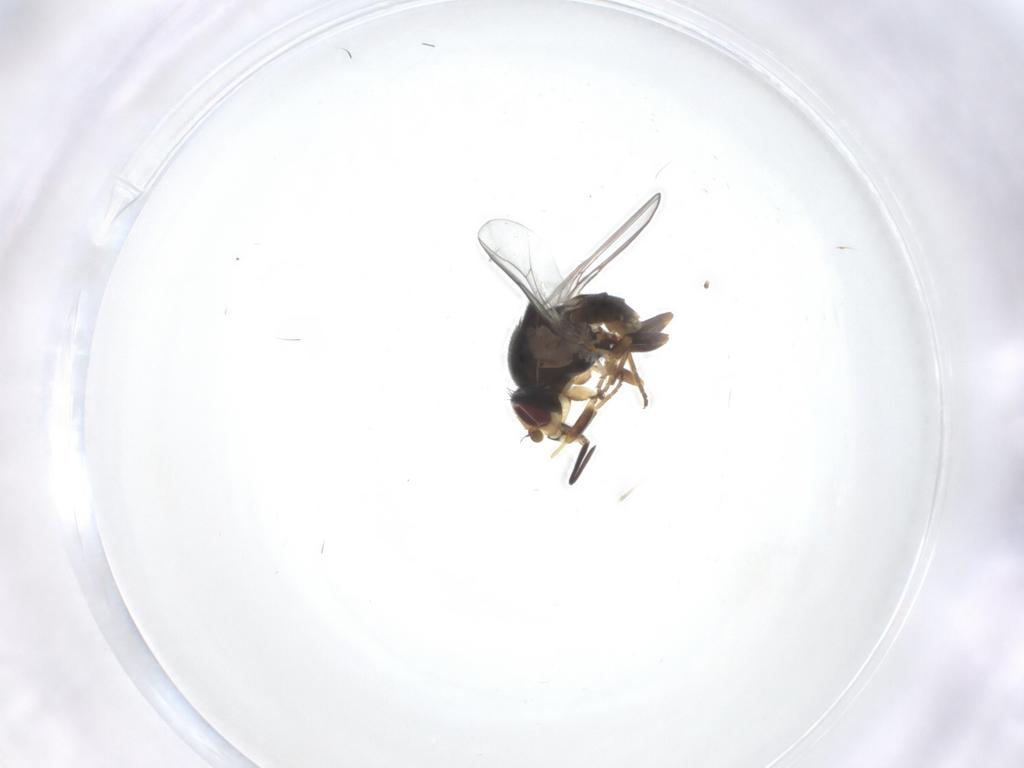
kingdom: Animalia
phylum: Arthropoda
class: Insecta
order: Diptera
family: Chloropidae
